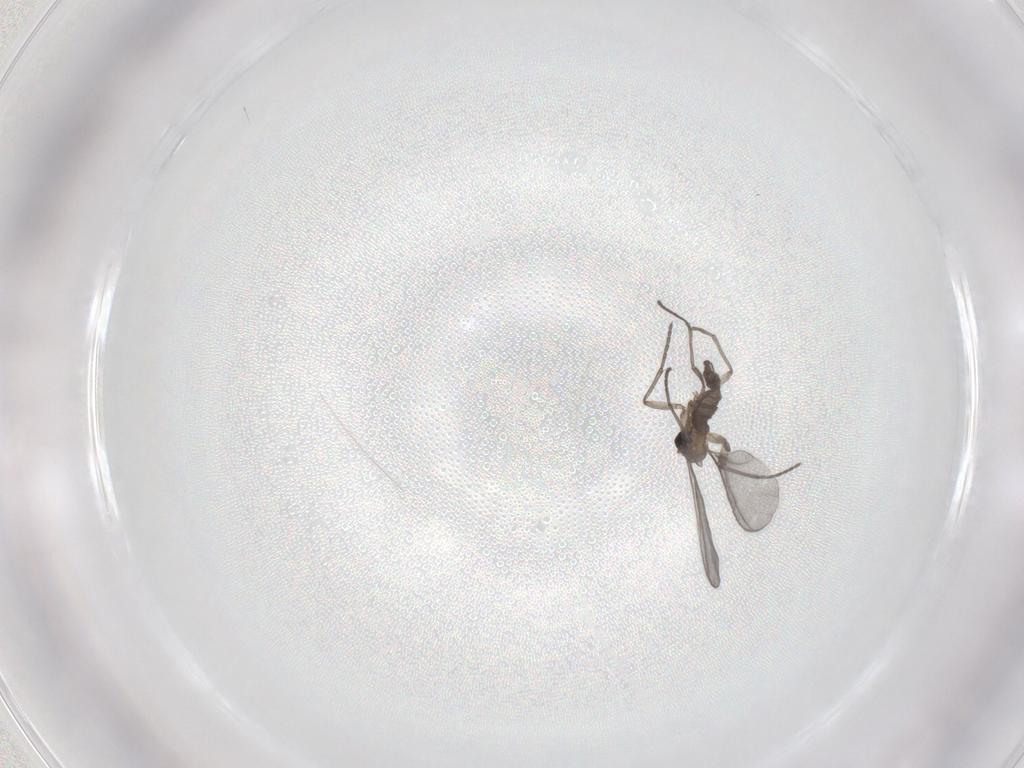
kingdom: Animalia
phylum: Arthropoda
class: Insecta
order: Diptera
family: Sciaridae
